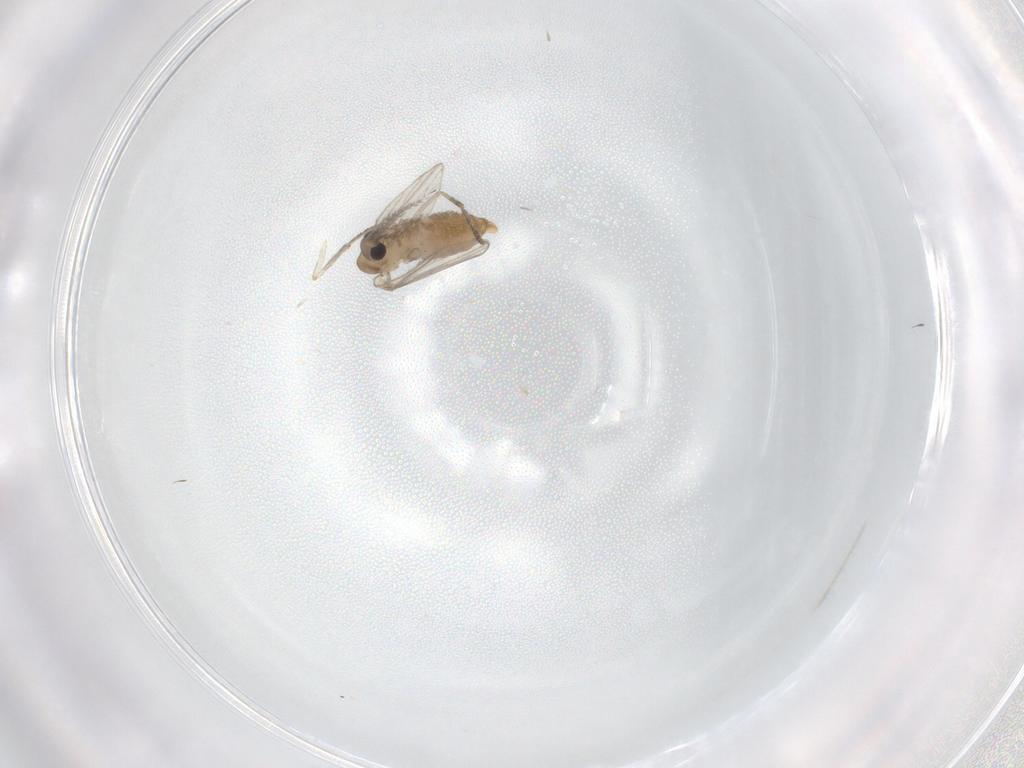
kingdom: Animalia
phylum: Arthropoda
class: Insecta
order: Diptera
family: Psychodidae
